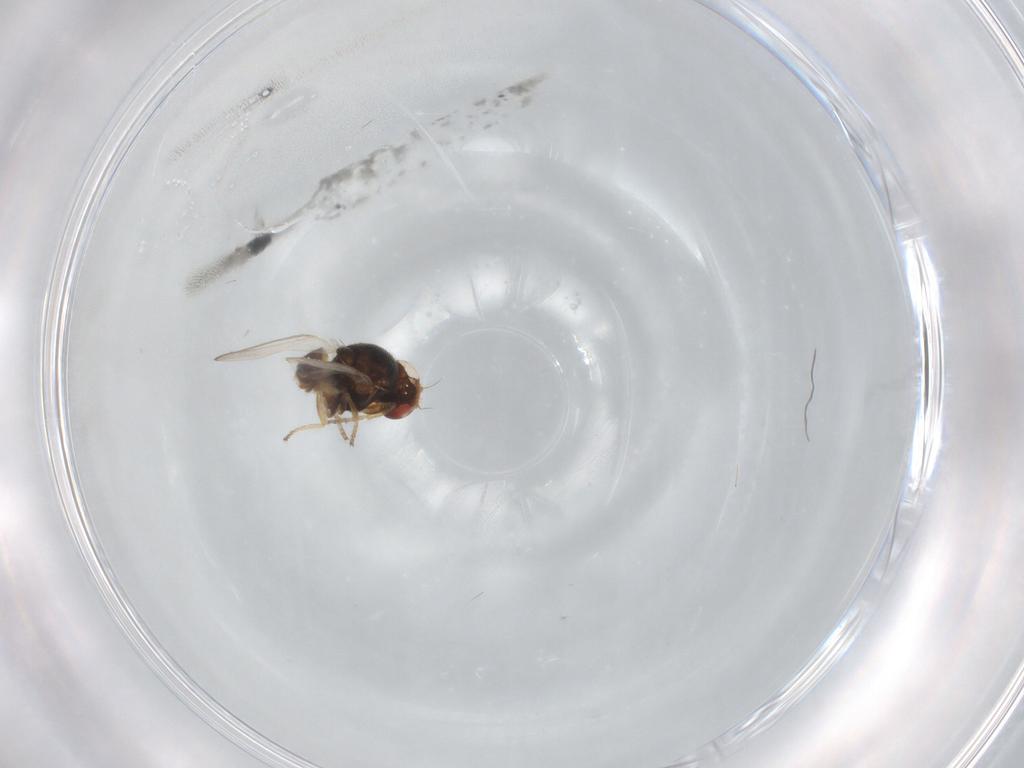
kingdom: Animalia
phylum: Arthropoda
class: Insecta
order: Diptera
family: Chloropidae
